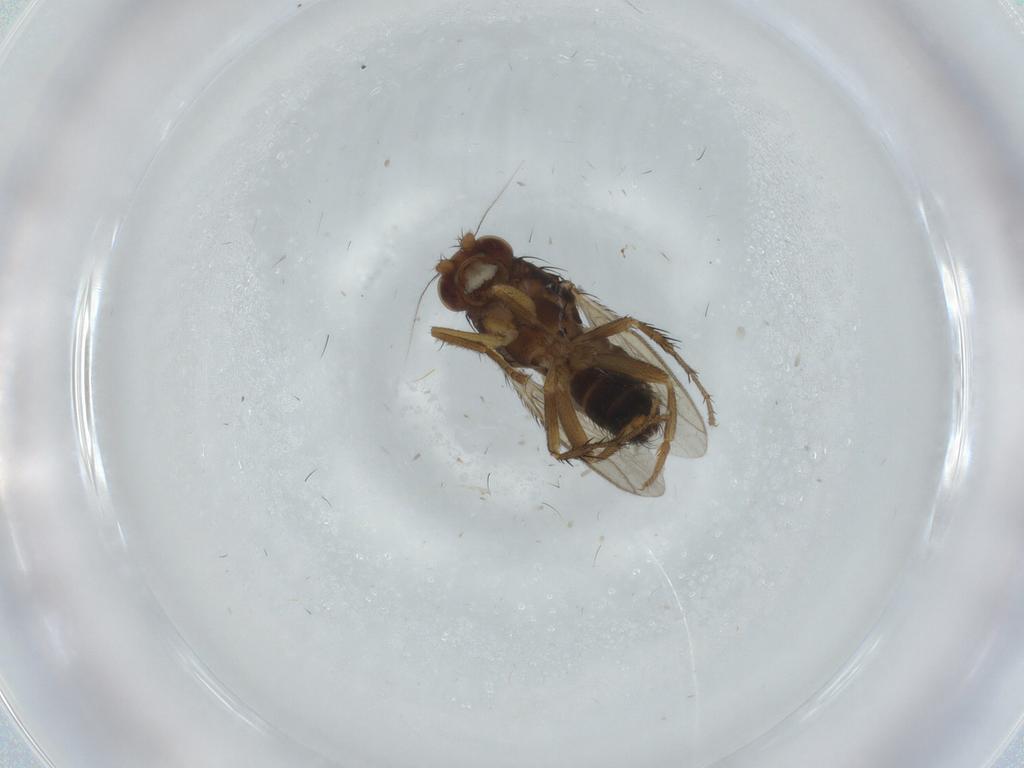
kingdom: Animalia
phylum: Arthropoda
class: Insecta
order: Diptera
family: Sphaeroceridae
